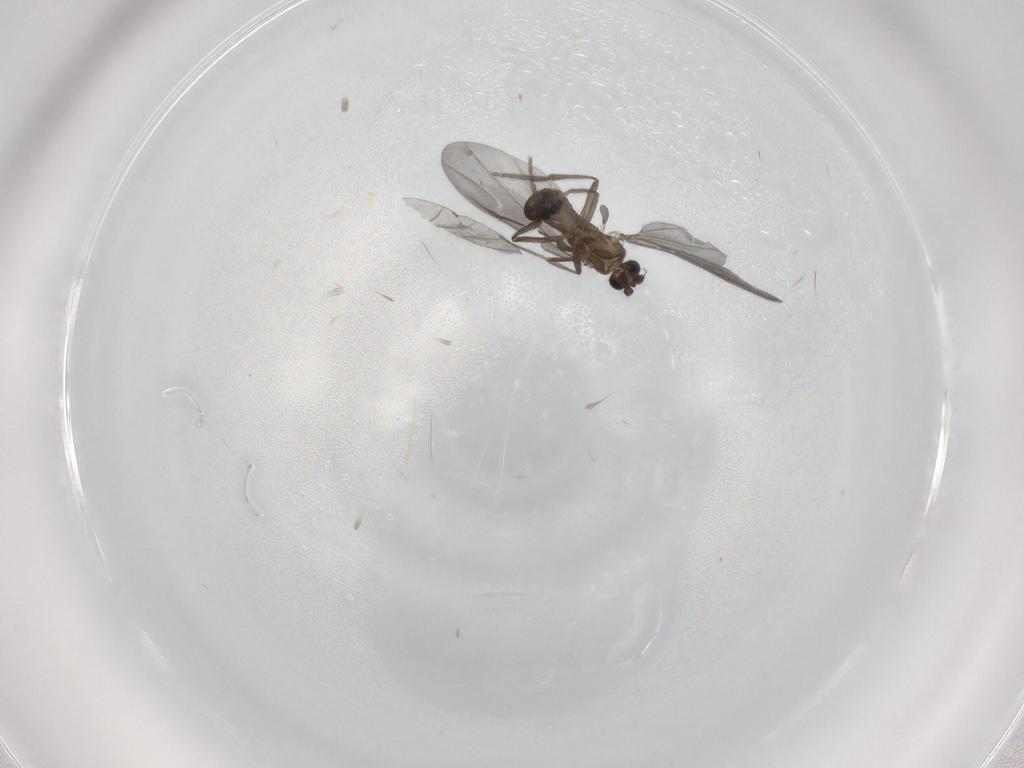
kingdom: Animalia
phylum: Arthropoda
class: Insecta
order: Diptera
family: Phoridae
